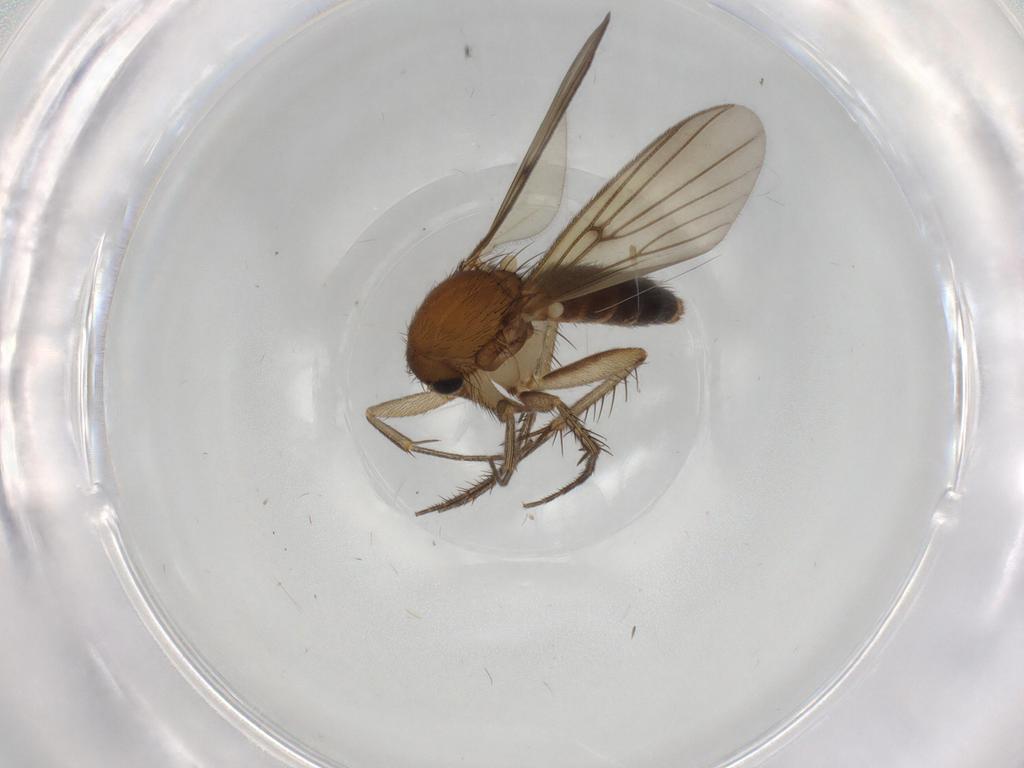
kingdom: Animalia
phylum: Arthropoda
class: Insecta
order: Diptera
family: Mycetophilidae
